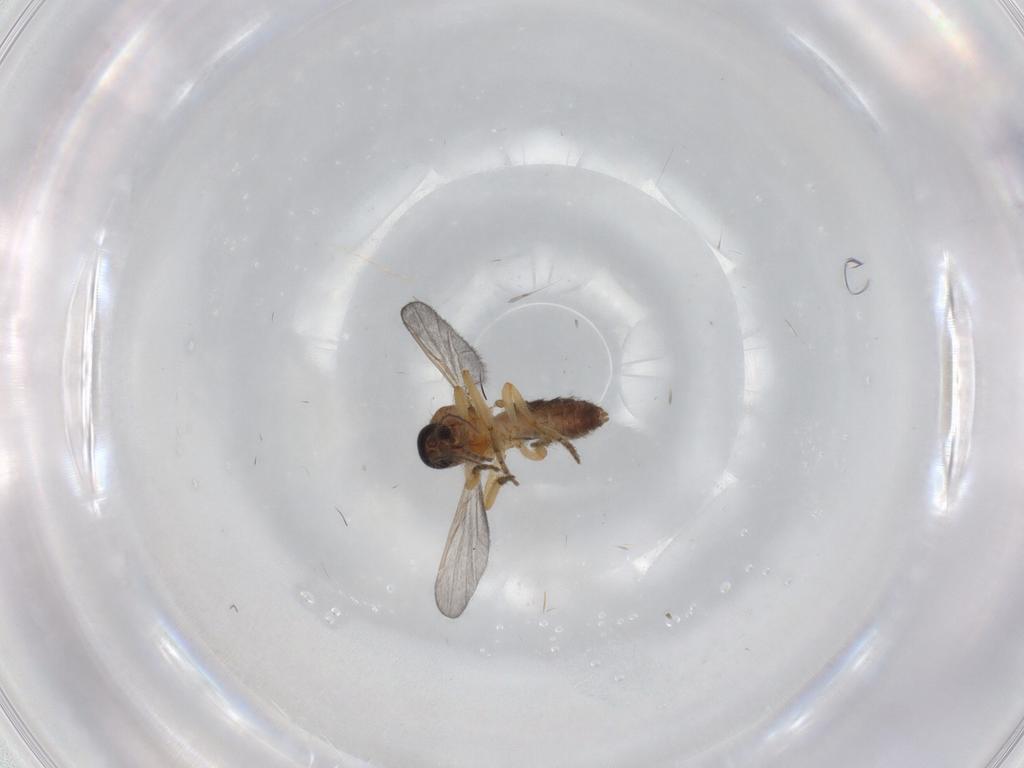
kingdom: Animalia
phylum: Arthropoda
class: Insecta
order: Diptera
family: Ceratopogonidae
